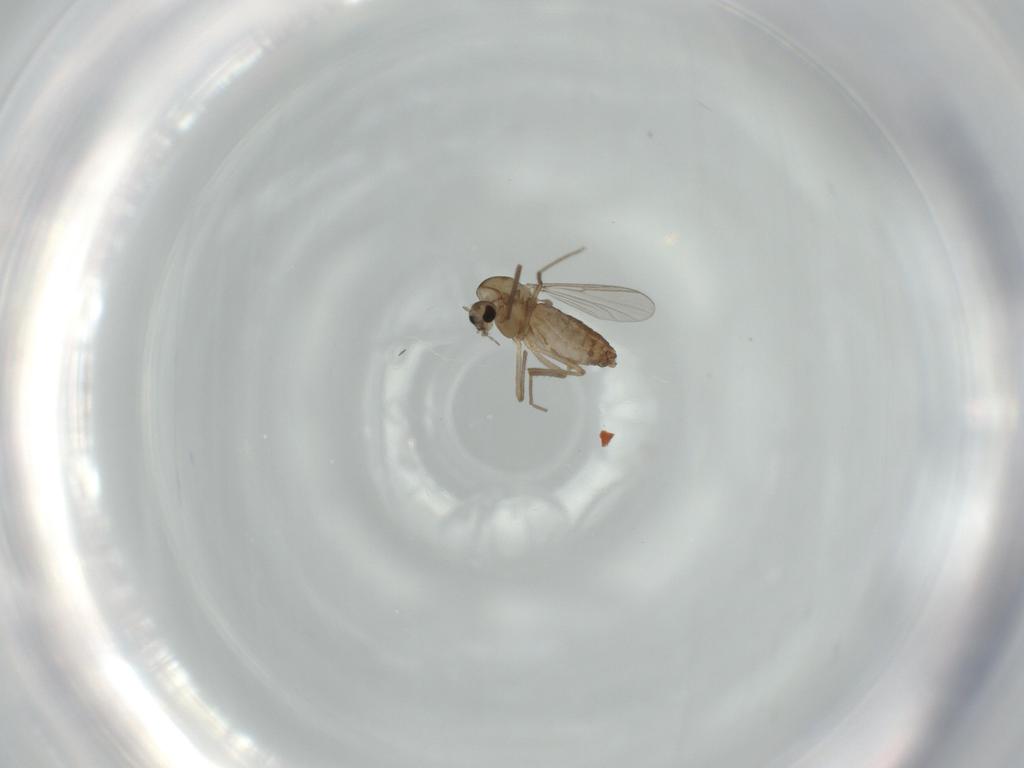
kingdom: Animalia
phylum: Arthropoda
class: Insecta
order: Diptera
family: Chironomidae
